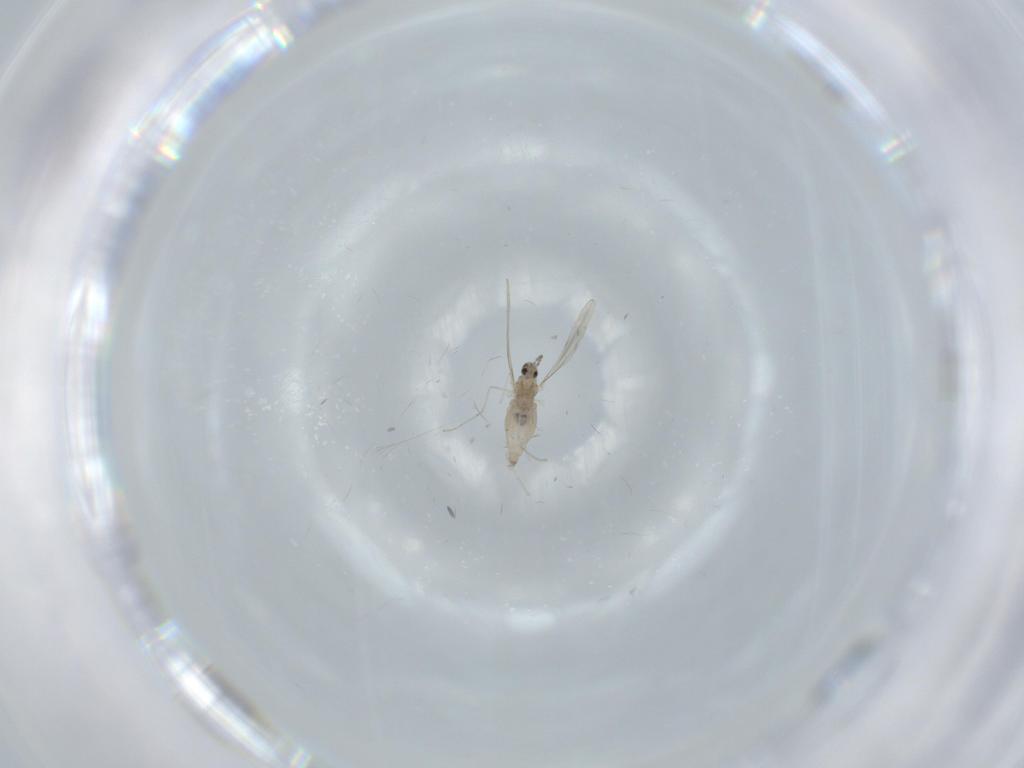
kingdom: Animalia
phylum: Arthropoda
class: Insecta
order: Diptera
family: Cecidomyiidae
